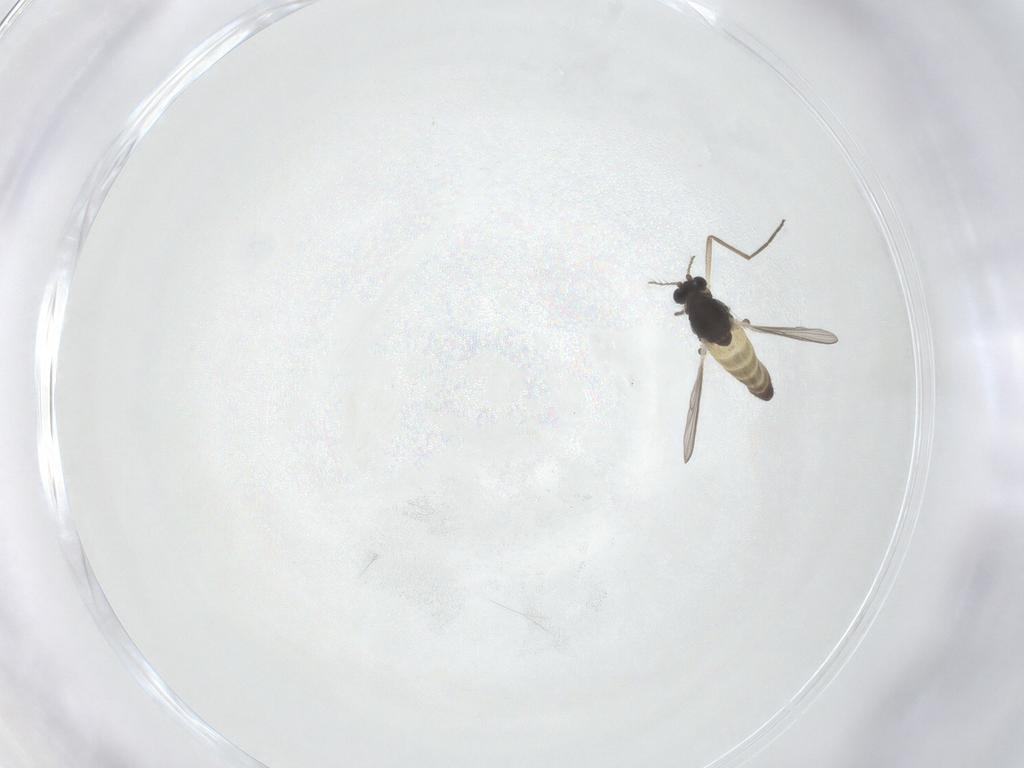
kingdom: Animalia
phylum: Arthropoda
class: Insecta
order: Diptera
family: Chironomidae
